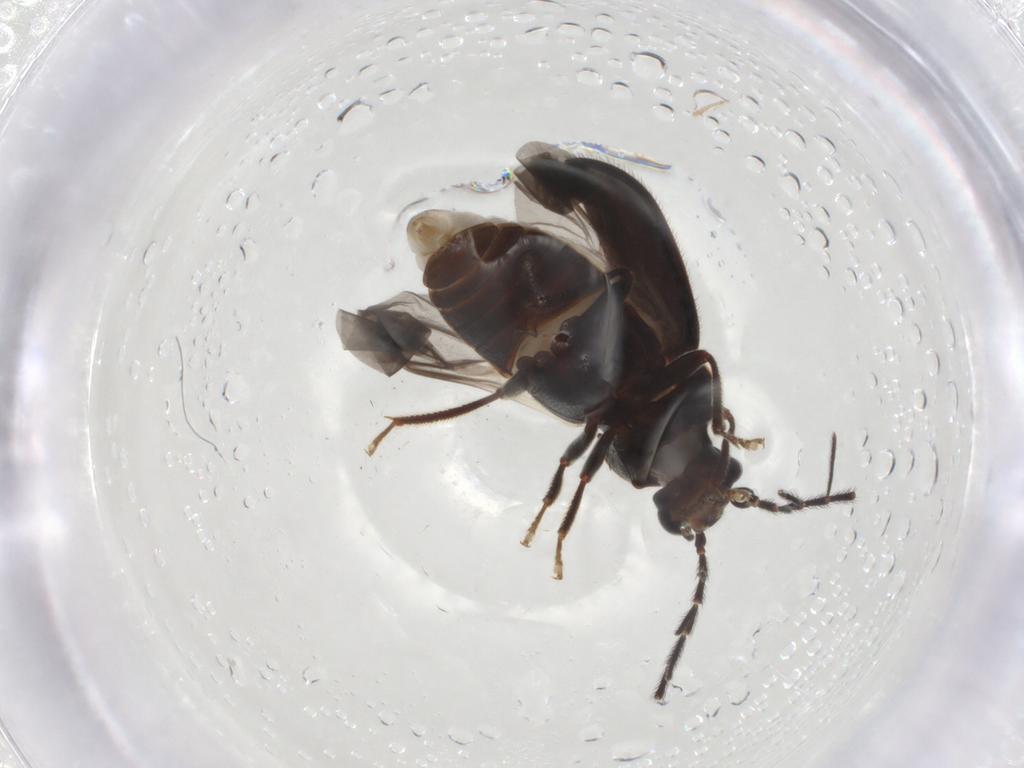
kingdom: Animalia
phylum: Arthropoda
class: Insecta
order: Coleoptera
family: Ptilodactylidae
